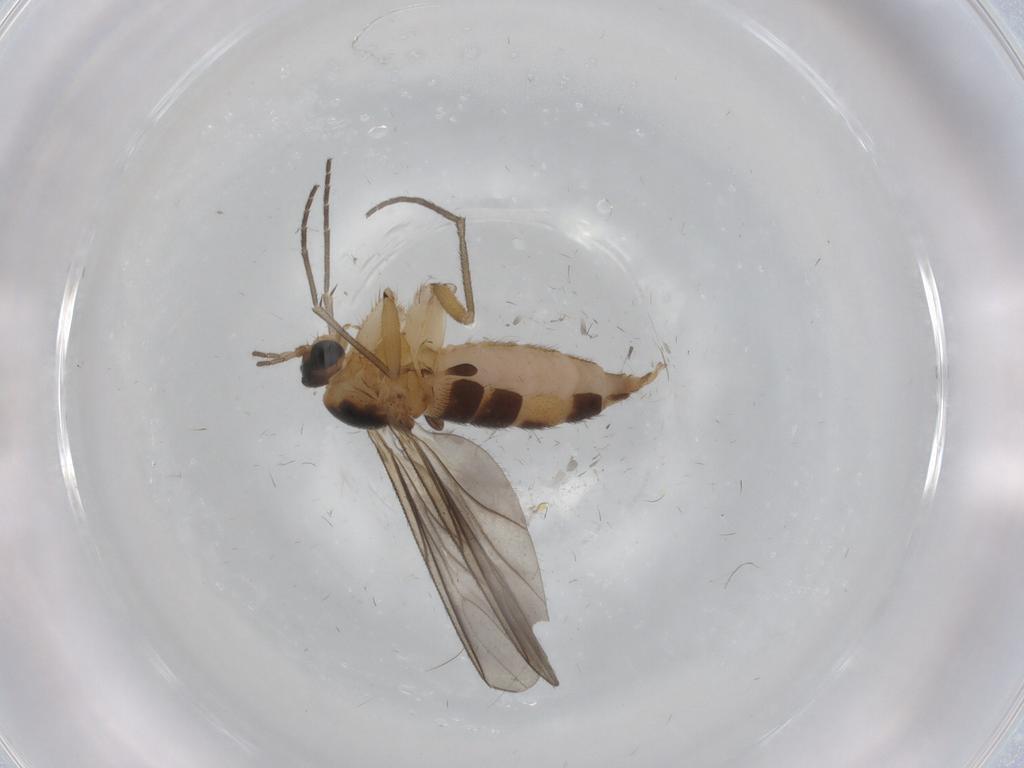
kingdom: Animalia
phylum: Arthropoda
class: Insecta
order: Diptera
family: Sciaridae
